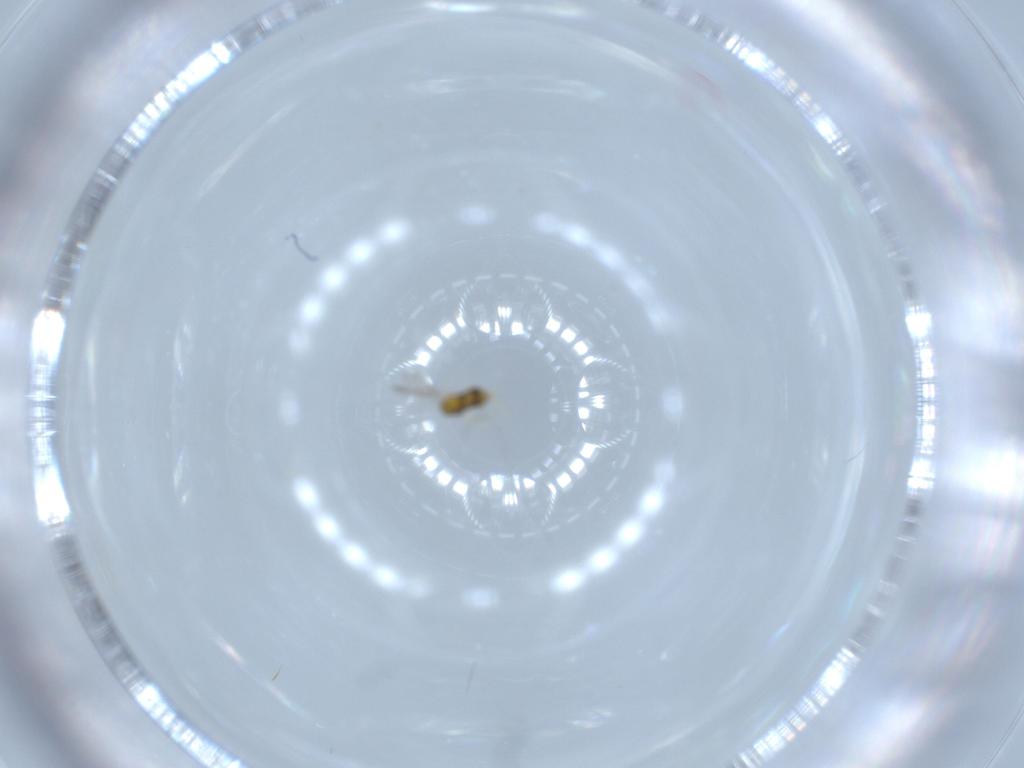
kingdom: Animalia
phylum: Arthropoda
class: Insecta
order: Hymenoptera
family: Aphelinidae
